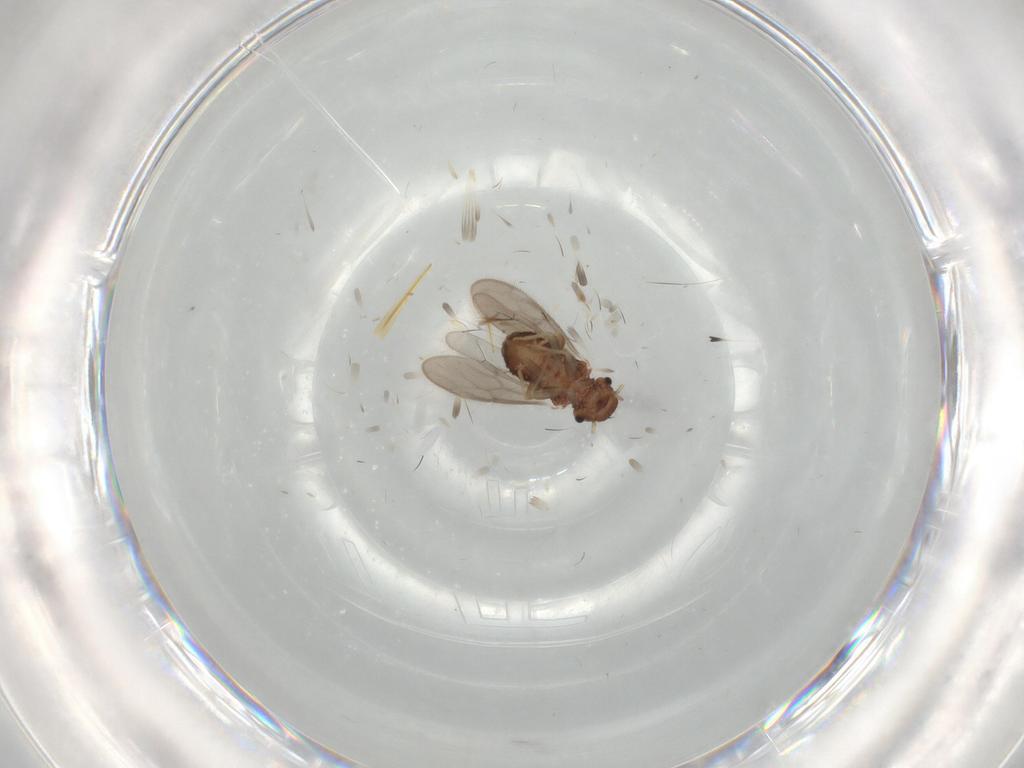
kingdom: Animalia
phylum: Arthropoda
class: Insecta
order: Psocodea
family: Archipsocidae
